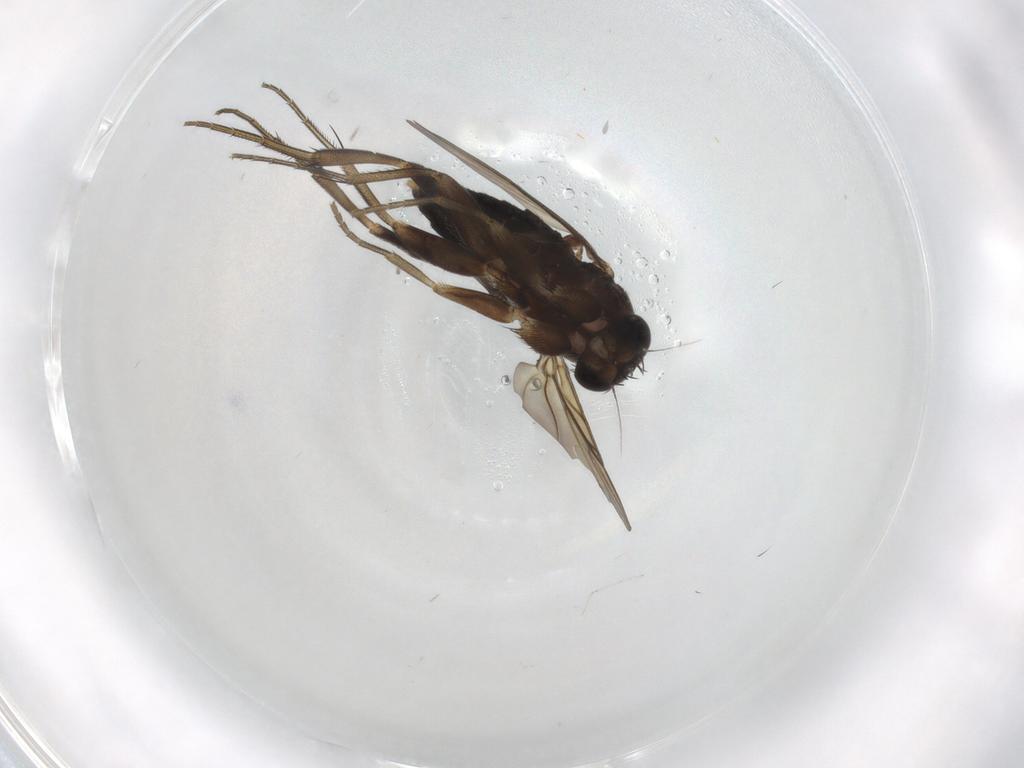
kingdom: Animalia
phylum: Arthropoda
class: Insecta
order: Diptera
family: Phoridae
